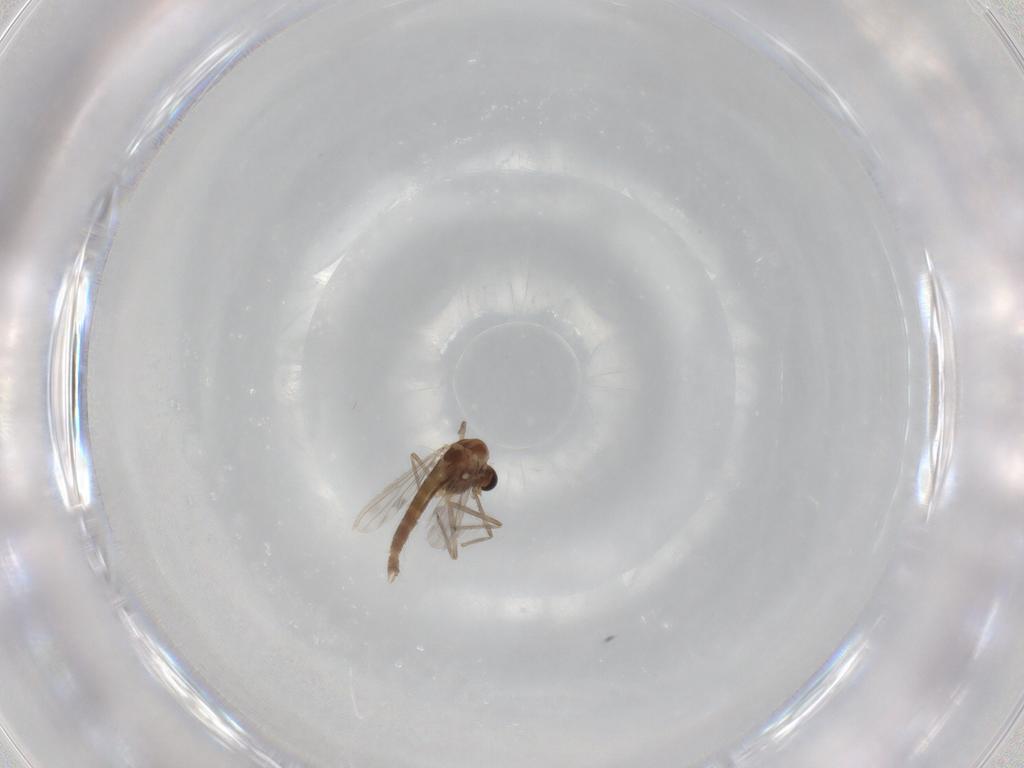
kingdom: Animalia
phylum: Arthropoda
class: Insecta
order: Diptera
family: Chironomidae
